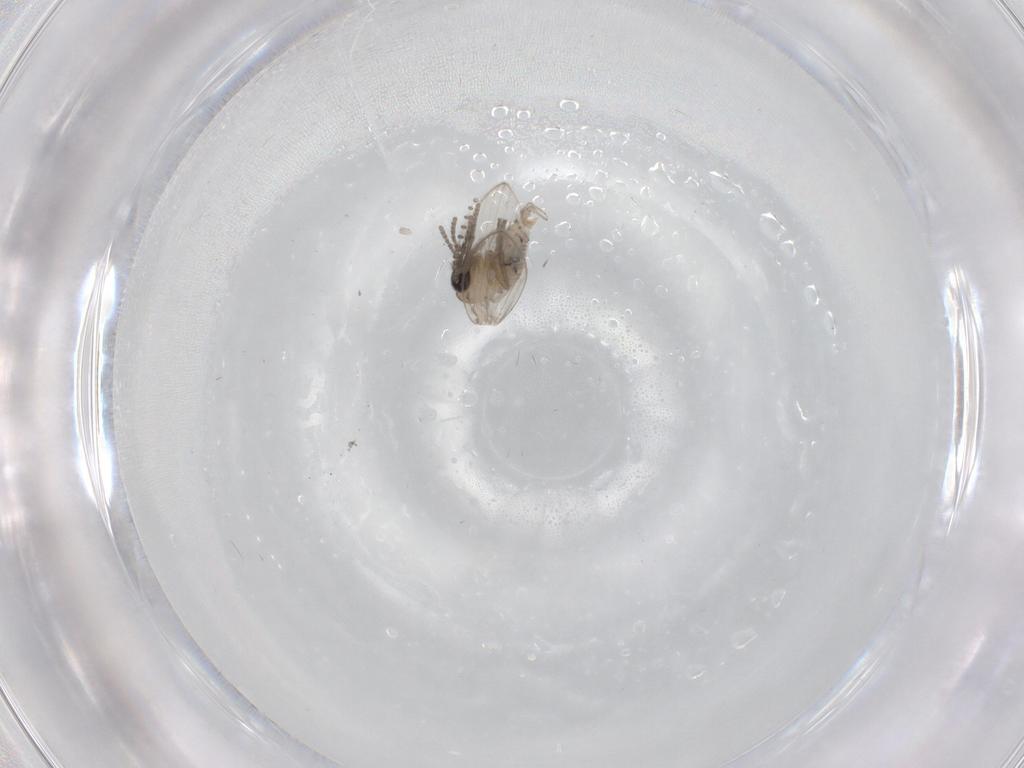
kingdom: Animalia
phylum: Arthropoda
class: Insecta
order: Diptera
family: Psychodidae
